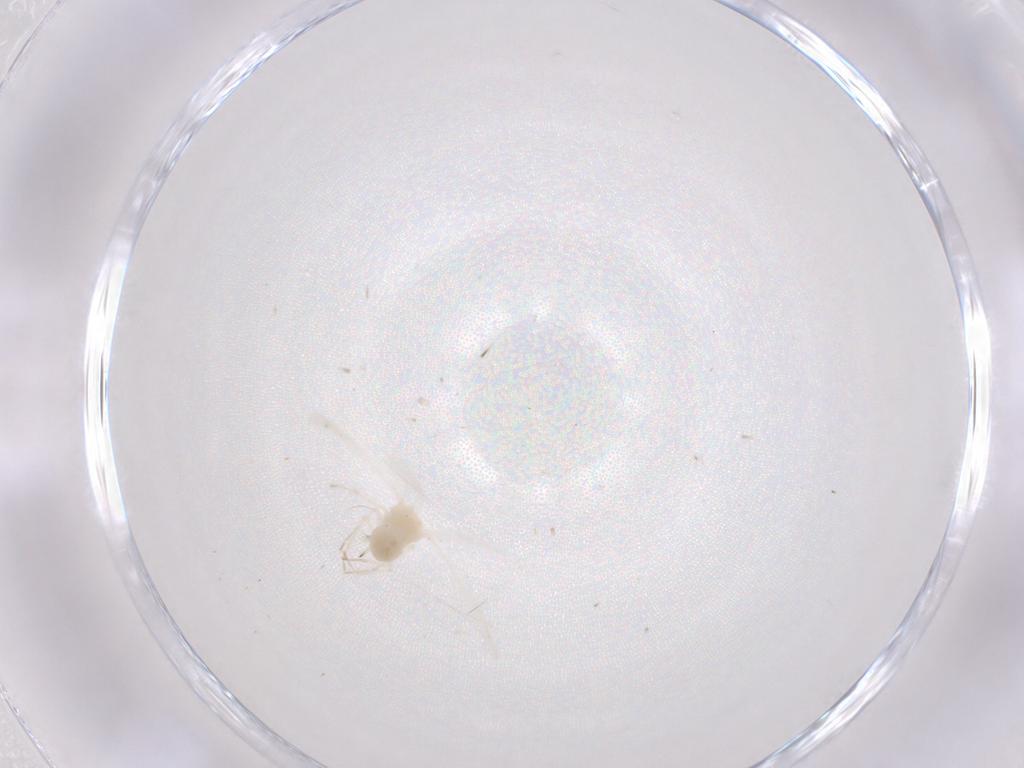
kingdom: Animalia
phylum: Arthropoda
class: Insecta
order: Hemiptera
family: Aleyrodidae
